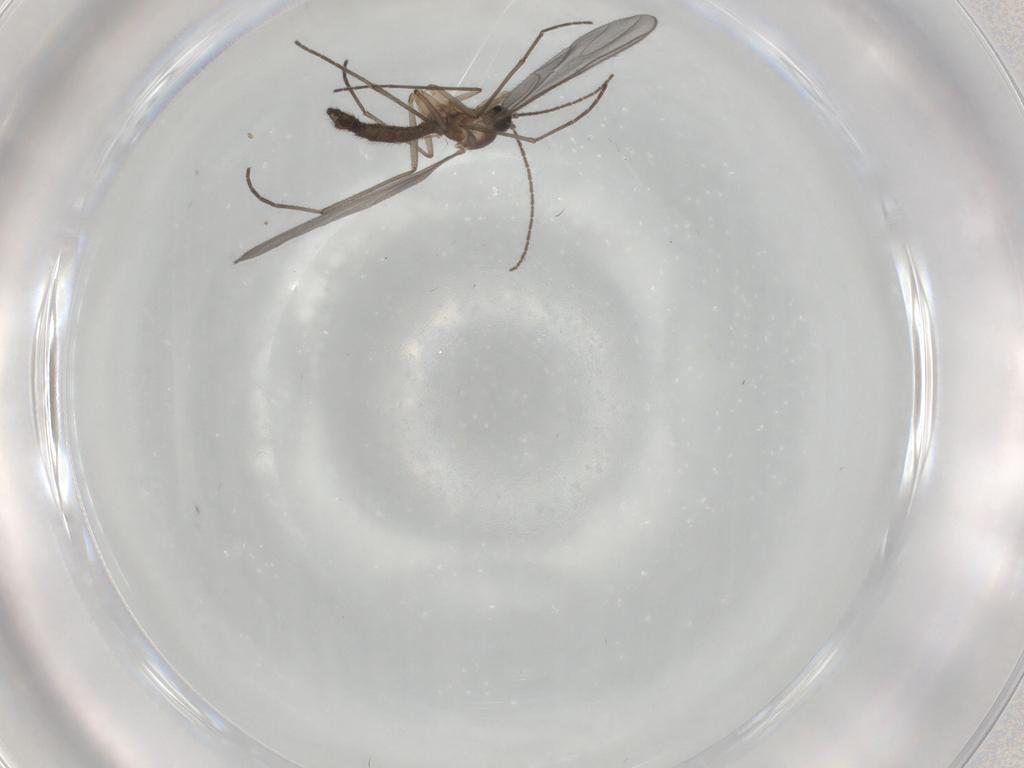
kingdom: Animalia
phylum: Arthropoda
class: Insecta
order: Diptera
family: Sciaridae
